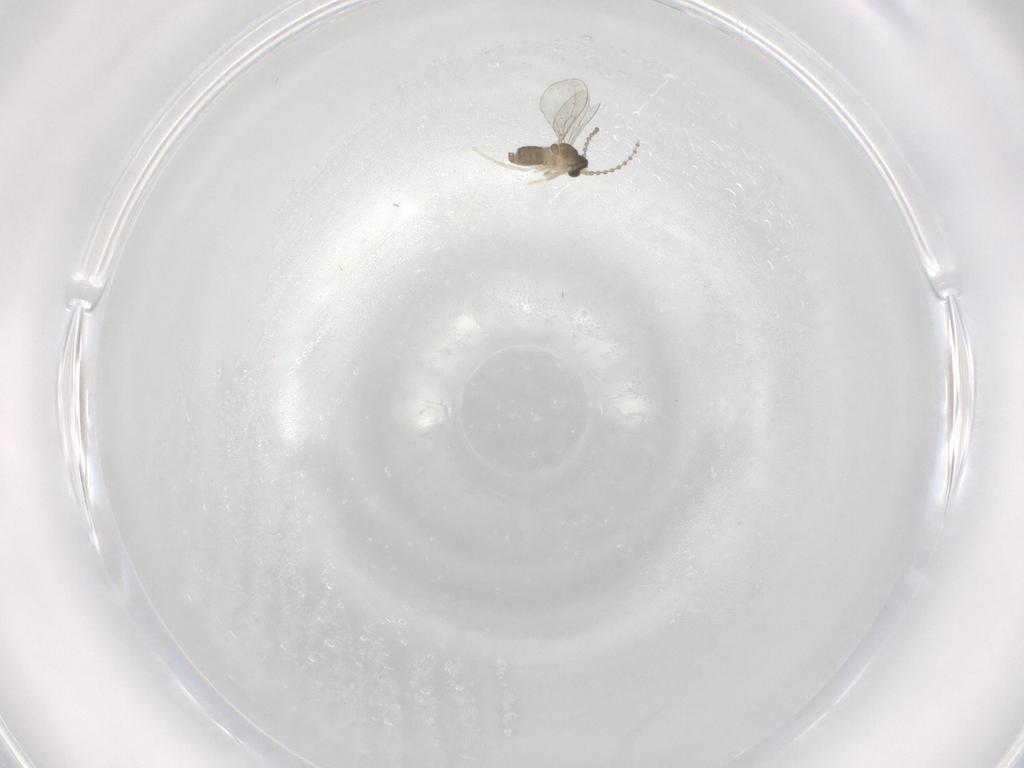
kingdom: Animalia
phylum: Arthropoda
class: Insecta
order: Diptera
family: Cecidomyiidae
